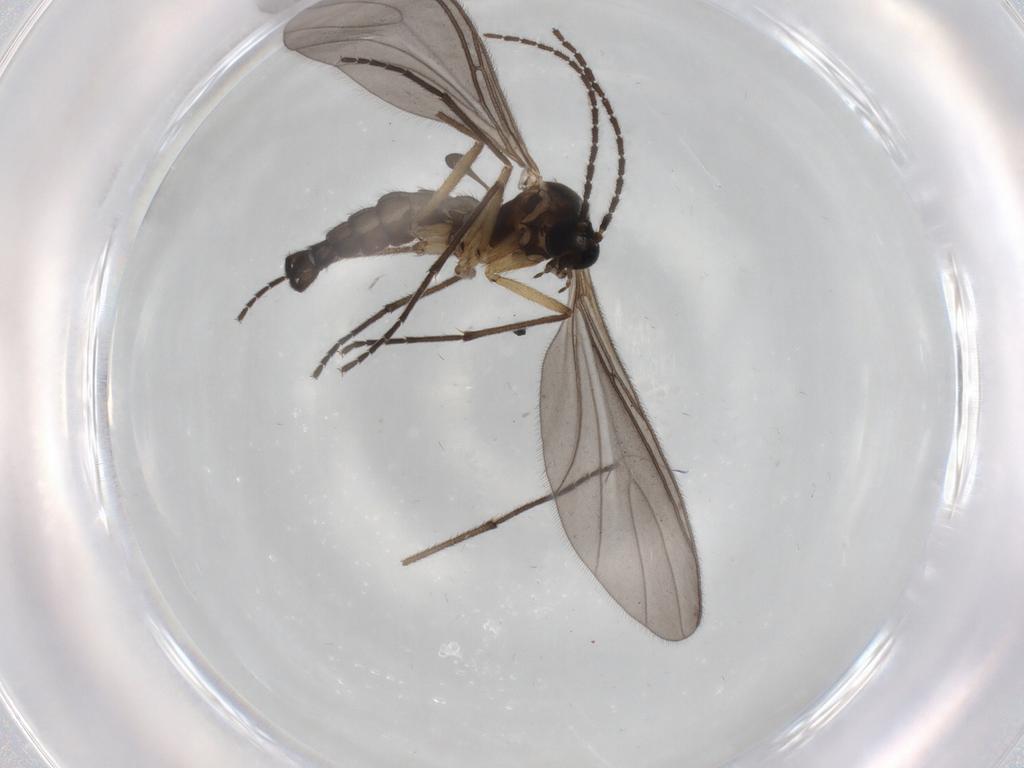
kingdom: Animalia
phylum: Arthropoda
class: Insecta
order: Diptera
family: Sciaridae
